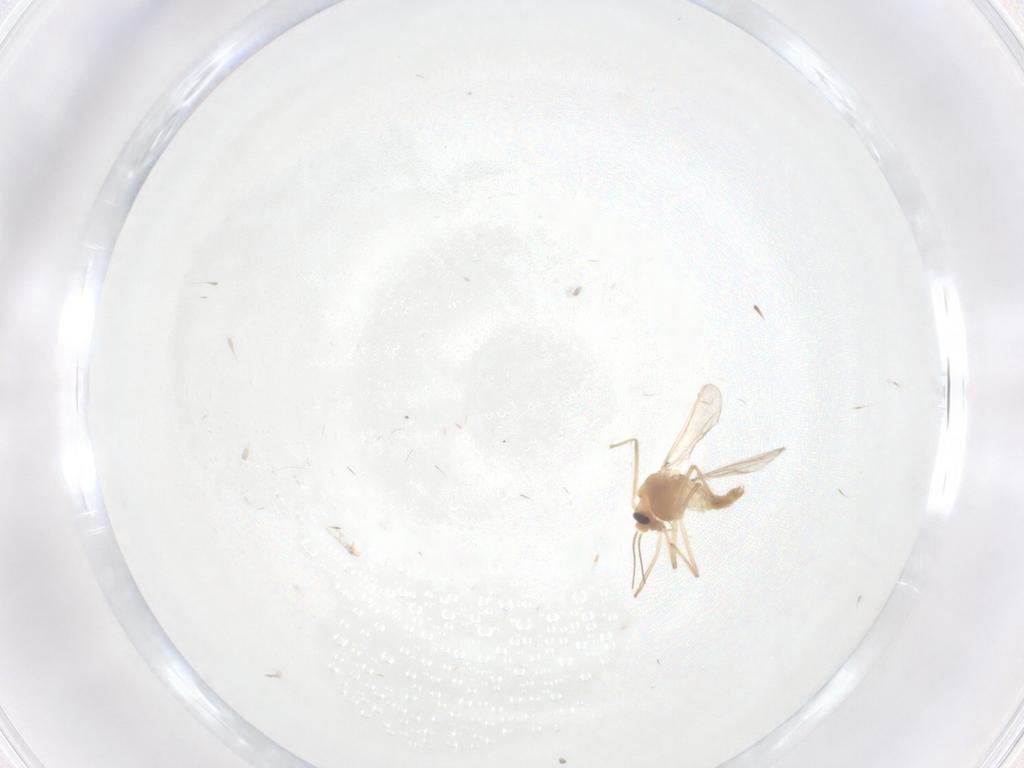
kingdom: Animalia
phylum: Arthropoda
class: Insecta
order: Diptera
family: Chironomidae
